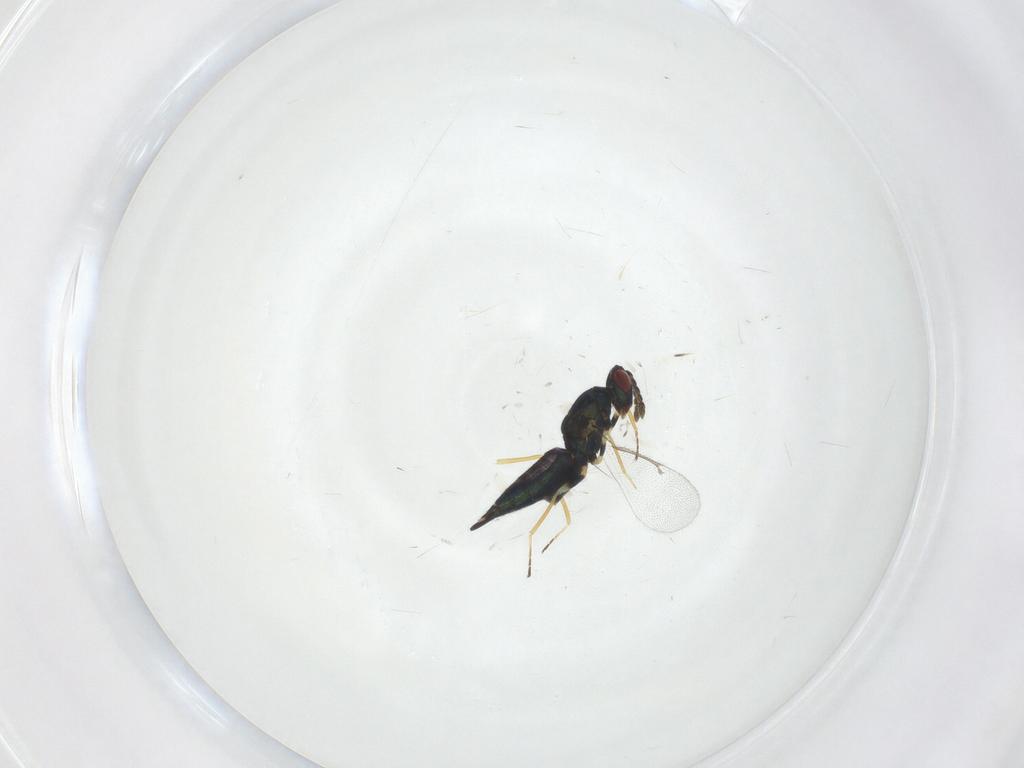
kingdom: Animalia
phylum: Arthropoda
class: Insecta
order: Hymenoptera
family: Eulophidae
